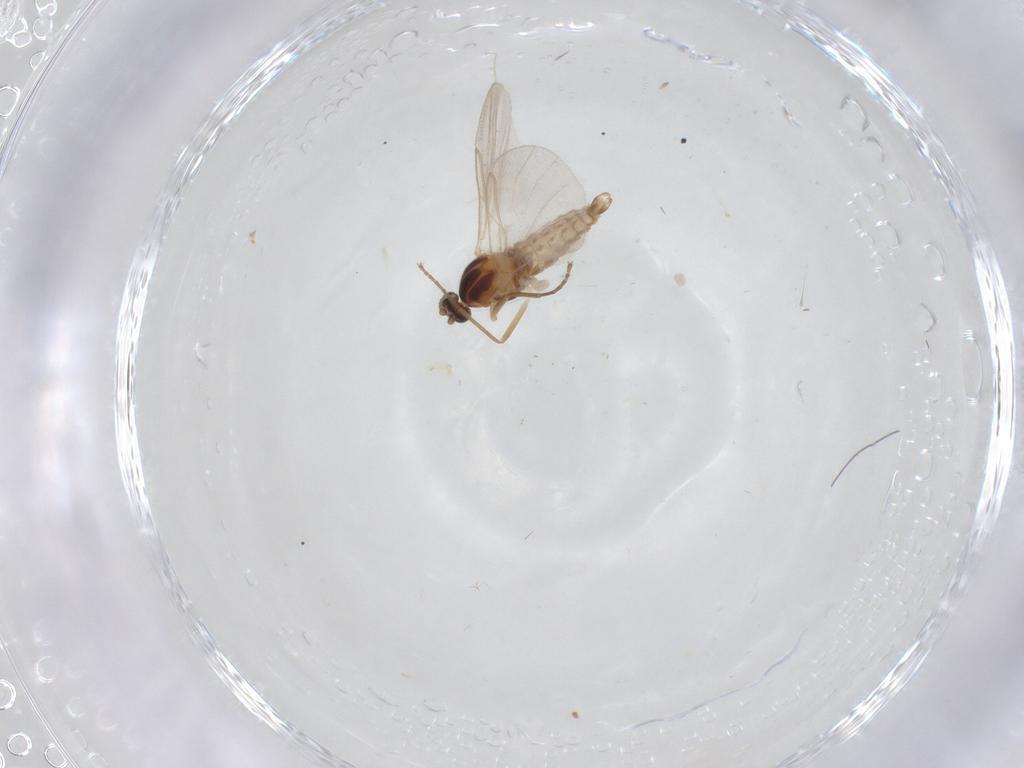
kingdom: Animalia
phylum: Arthropoda
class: Insecta
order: Diptera
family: Cecidomyiidae
